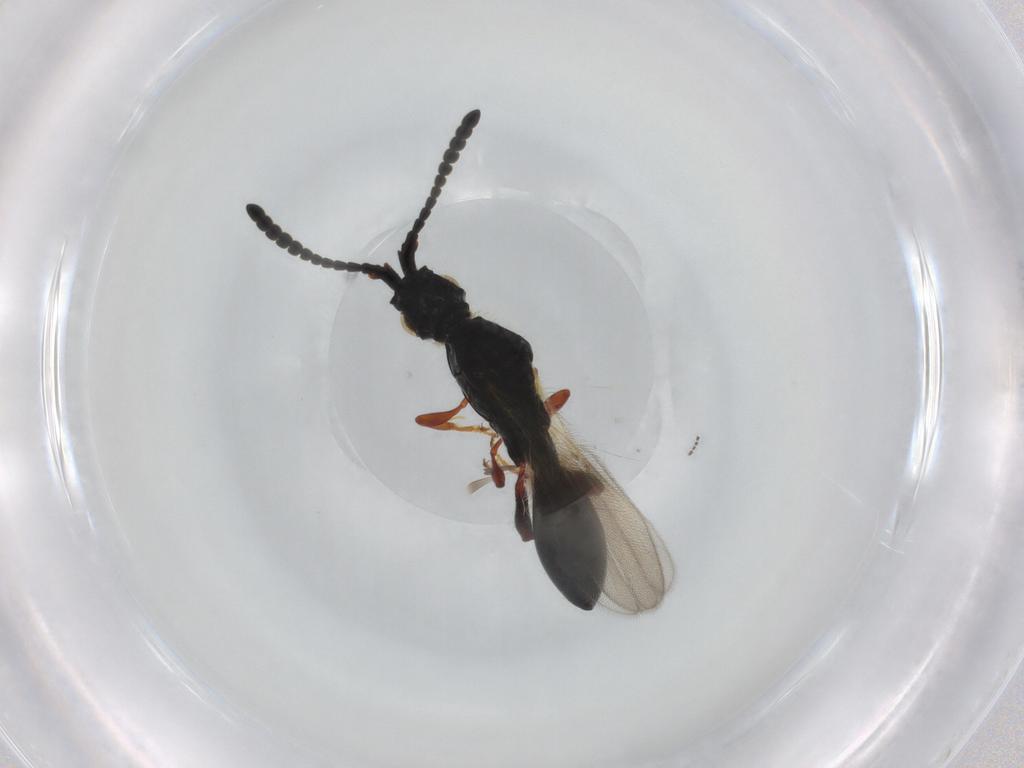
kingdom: Animalia
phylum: Arthropoda
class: Insecta
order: Hymenoptera
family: Diapriidae
